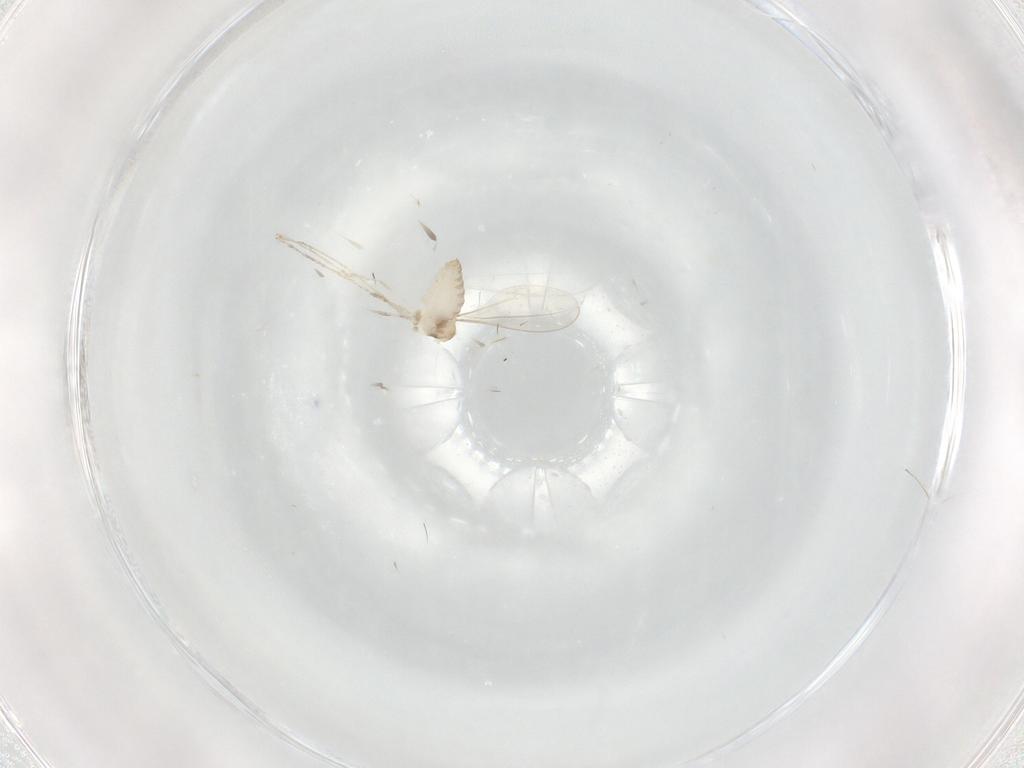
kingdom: Animalia
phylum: Arthropoda
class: Insecta
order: Diptera
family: Cecidomyiidae
